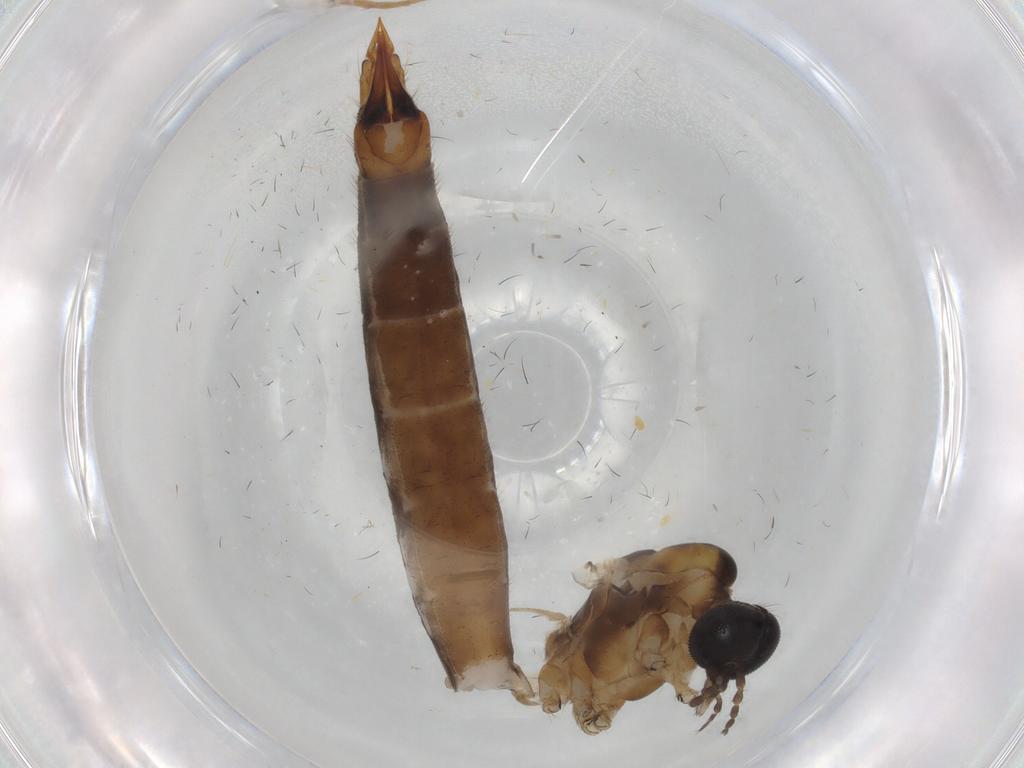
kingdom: Animalia
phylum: Arthropoda
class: Insecta
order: Diptera
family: Limoniidae
